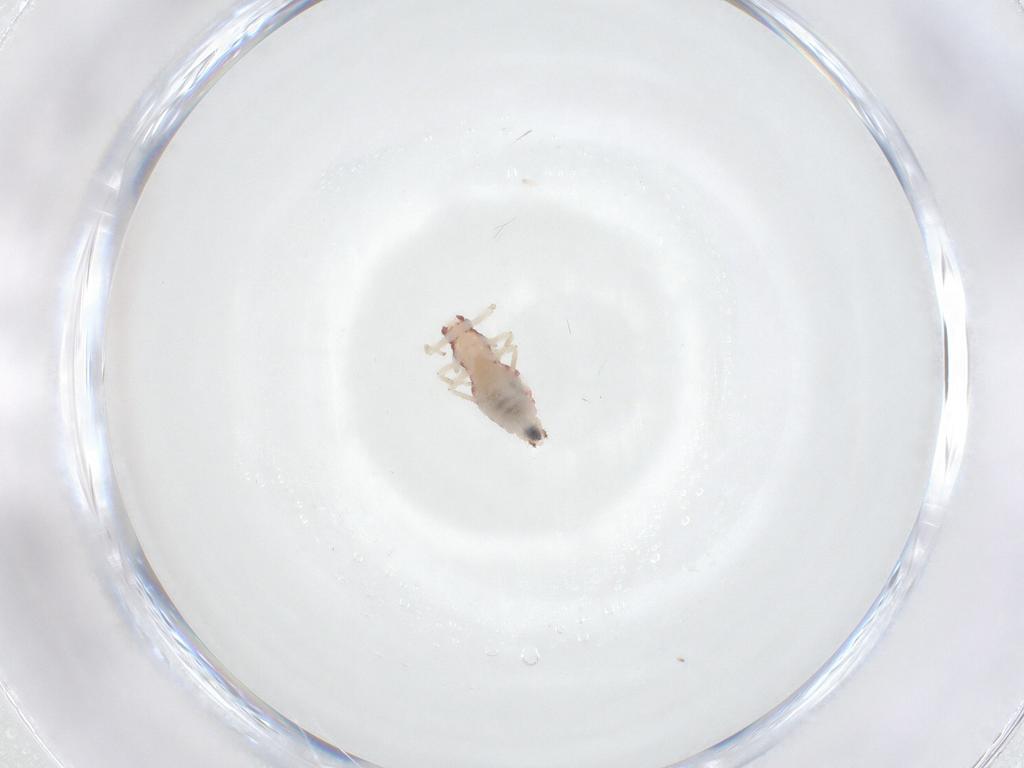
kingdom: Animalia
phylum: Arthropoda
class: Insecta
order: Psocodea
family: Caeciliusidae
